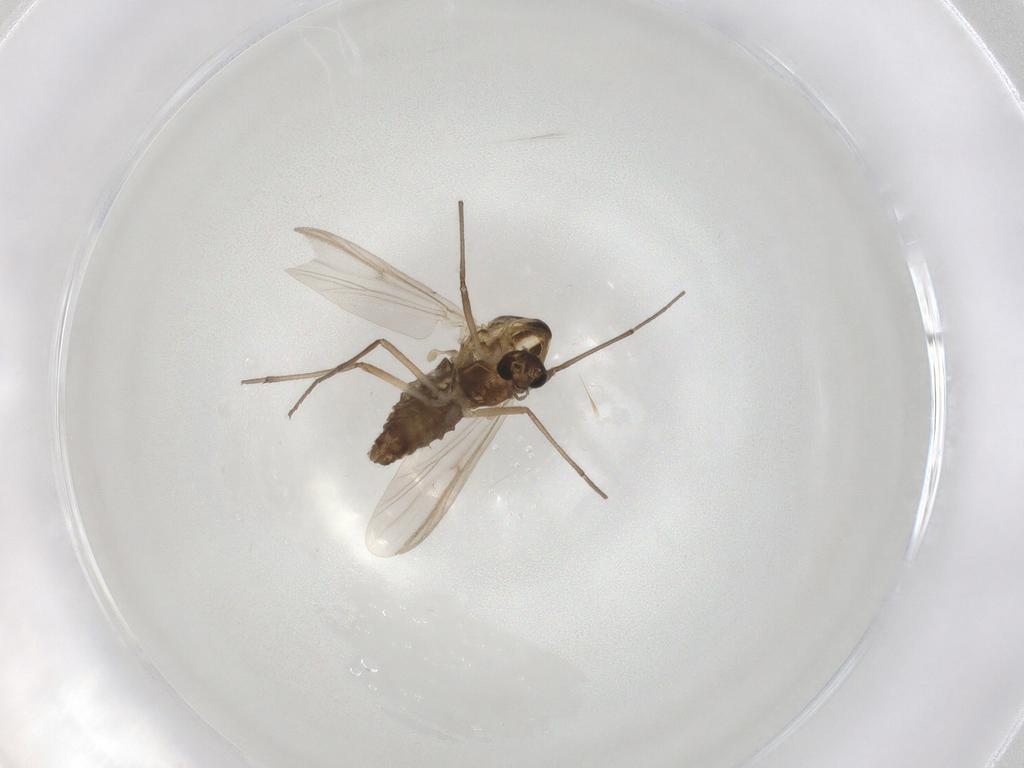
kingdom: Animalia
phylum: Arthropoda
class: Insecta
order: Diptera
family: Chironomidae
